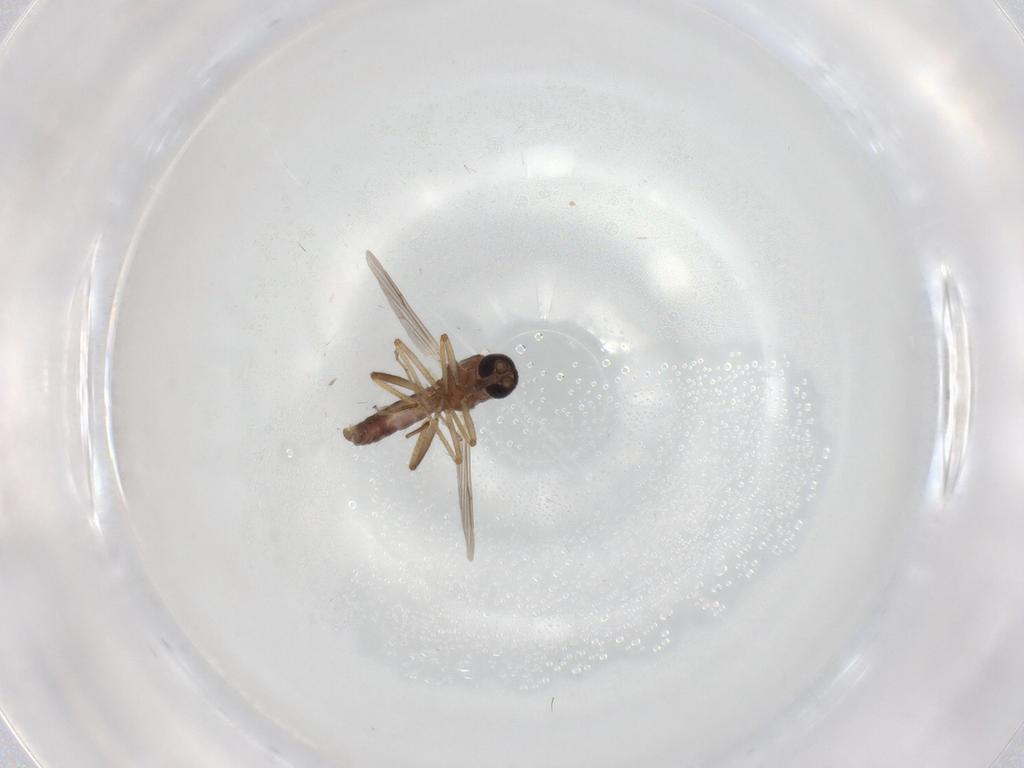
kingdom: Animalia
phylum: Arthropoda
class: Insecta
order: Diptera
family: Ceratopogonidae
